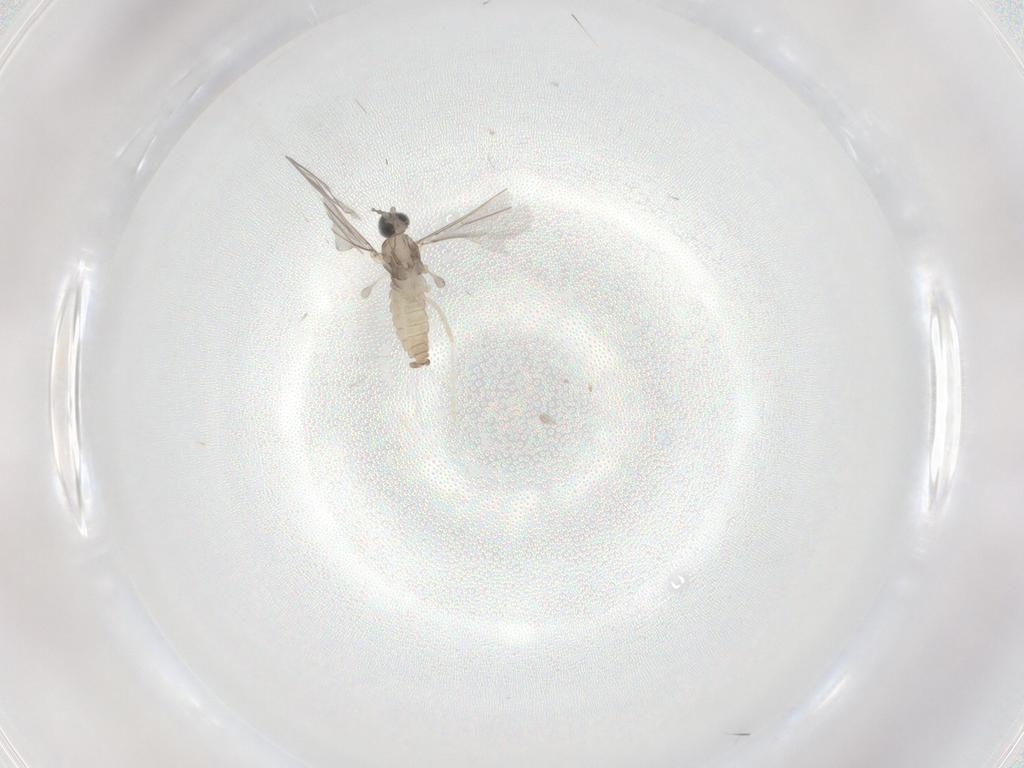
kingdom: Animalia
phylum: Arthropoda
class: Insecta
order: Diptera
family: Cecidomyiidae
